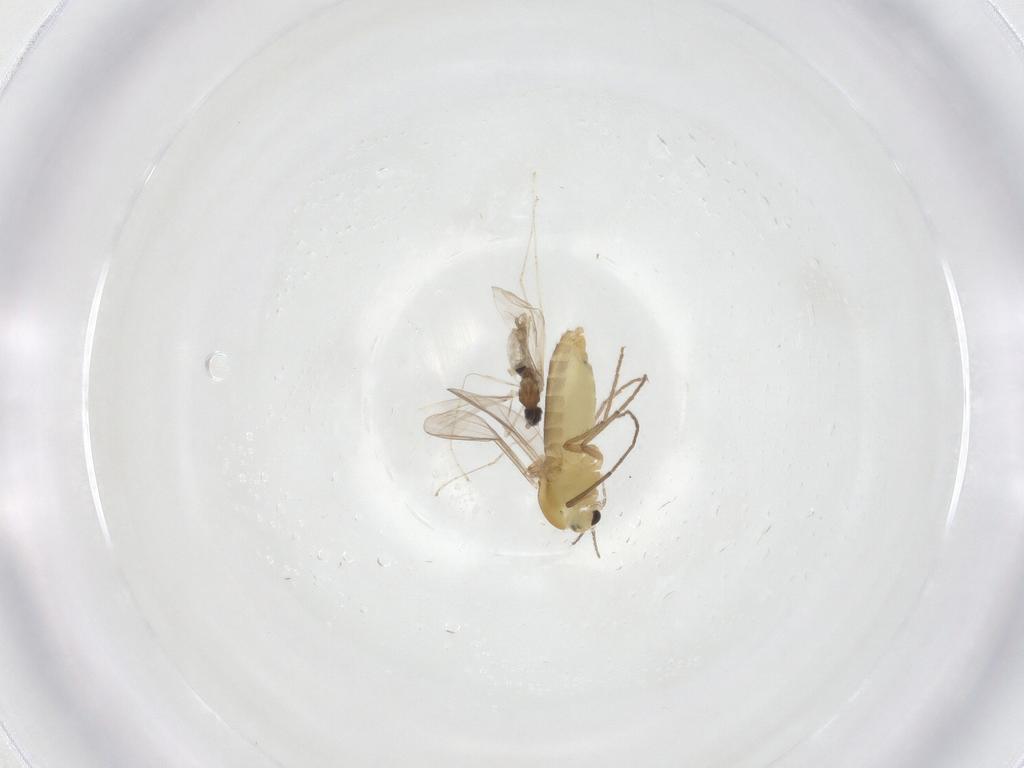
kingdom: Animalia
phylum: Arthropoda
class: Insecta
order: Diptera
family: Chironomidae
